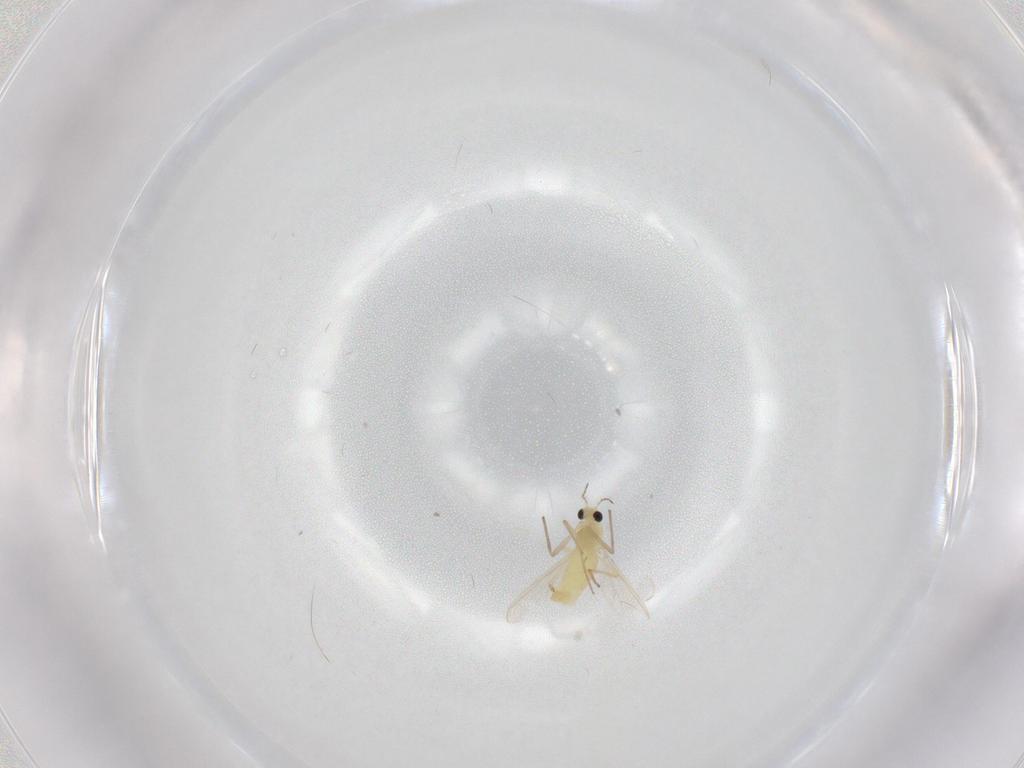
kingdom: Animalia
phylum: Arthropoda
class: Insecta
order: Diptera
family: Chironomidae
